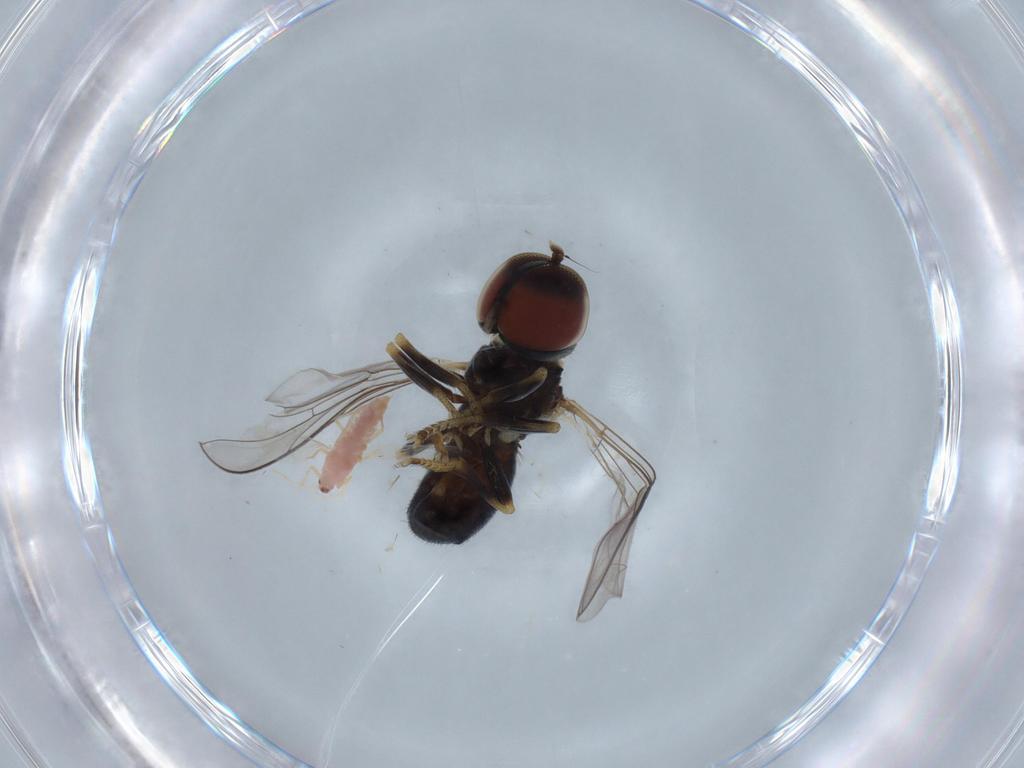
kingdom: Animalia
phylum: Arthropoda
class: Insecta
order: Diptera
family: Pipunculidae
